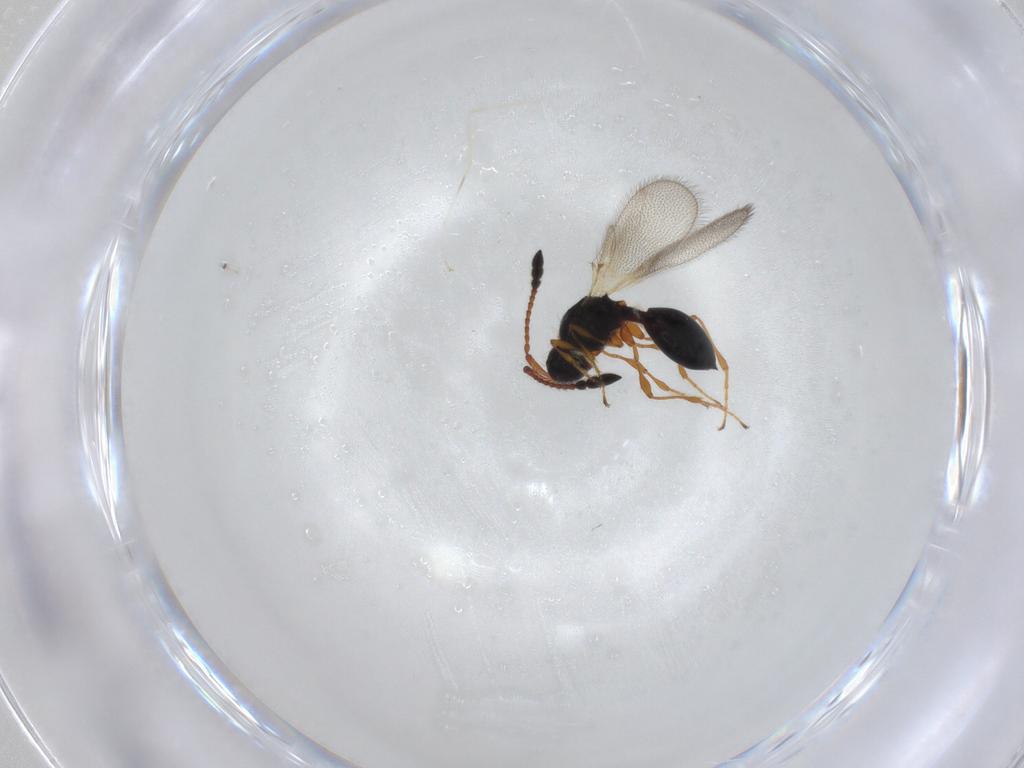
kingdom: Animalia
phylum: Arthropoda
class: Insecta
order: Hymenoptera
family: Diapriidae
